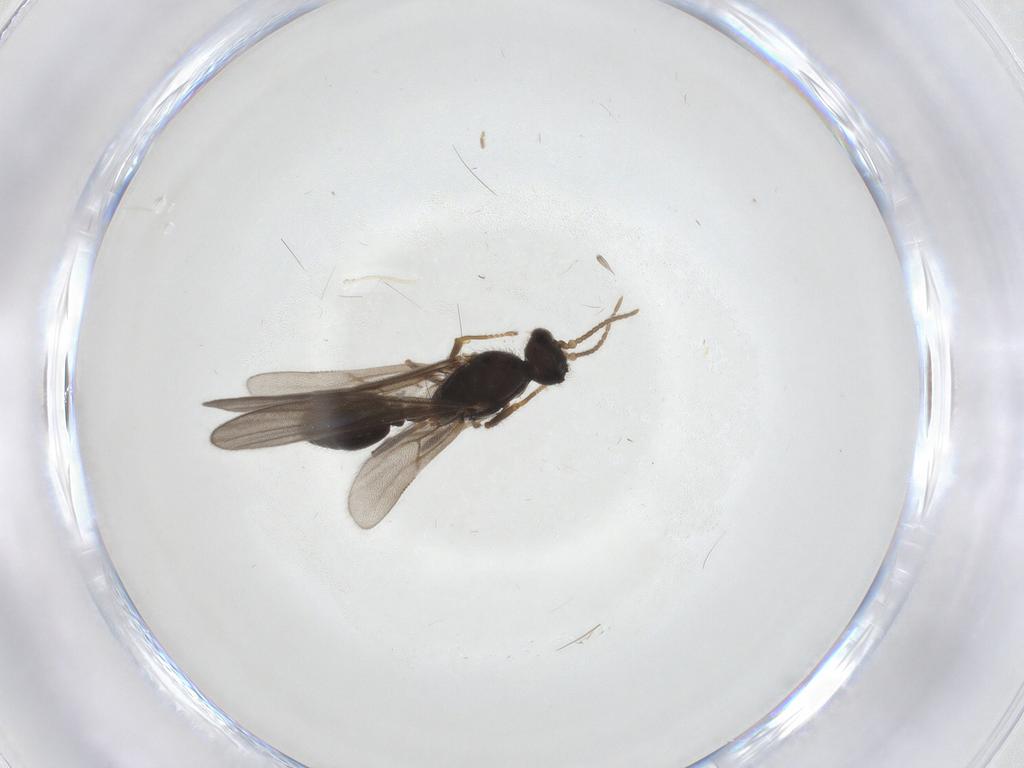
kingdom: Animalia
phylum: Arthropoda
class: Insecta
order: Hymenoptera
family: Formicidae
